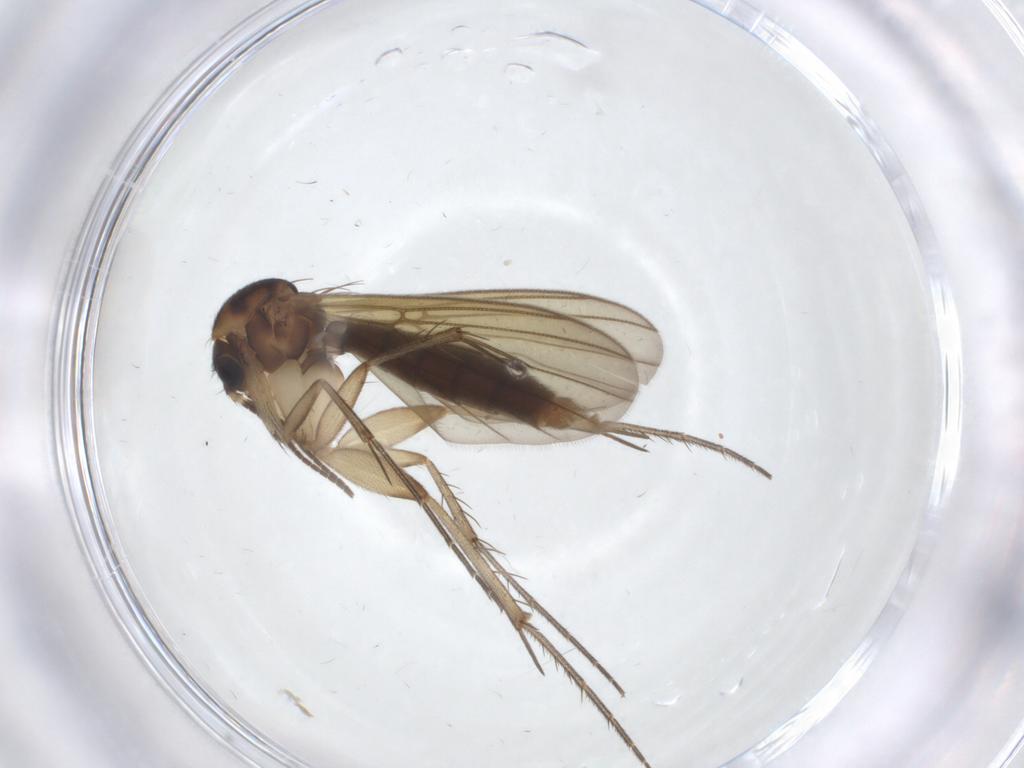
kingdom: Animalia
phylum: Arthropoda
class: Insecta
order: Diptera
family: Mycetophilidae
